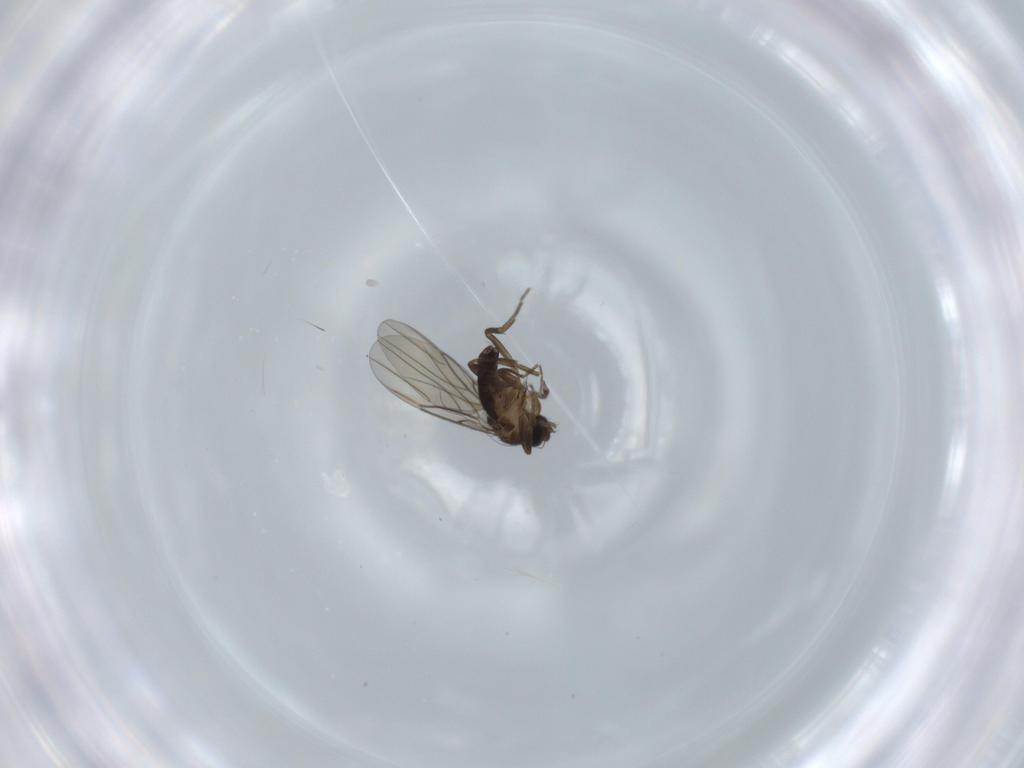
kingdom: Animalia
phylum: Arthropoda
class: Insecta
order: Diptera
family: Phoridae
